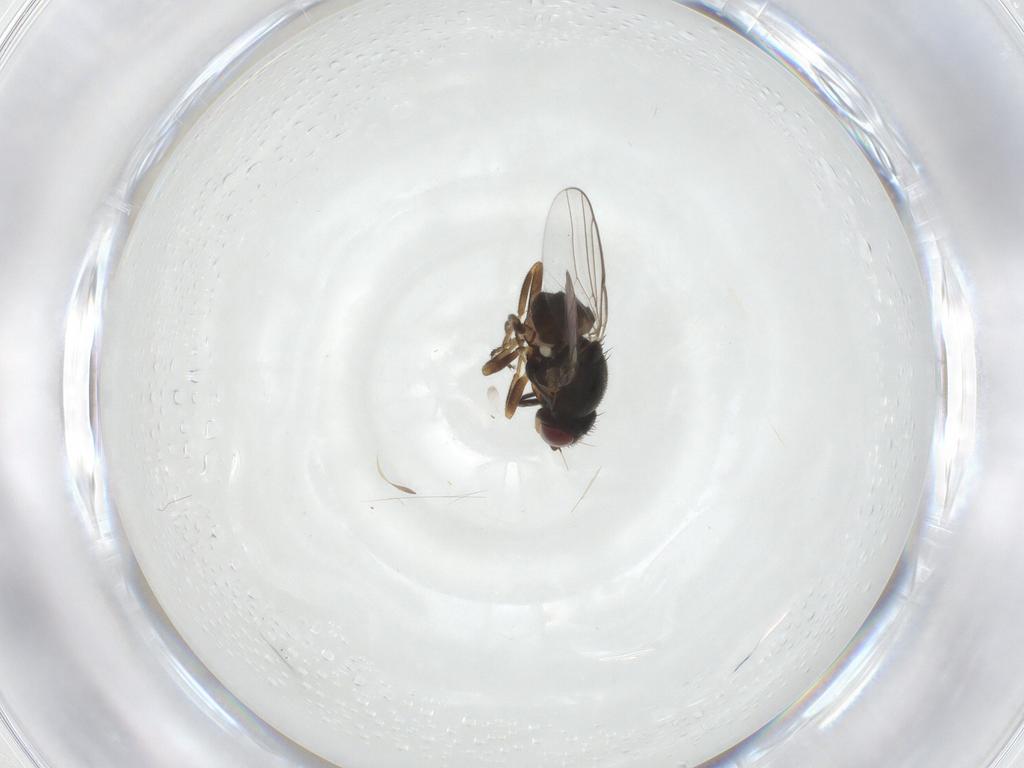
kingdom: Animalia
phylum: Arthropoda
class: Insecta
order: Diptera
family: Chloropidae
